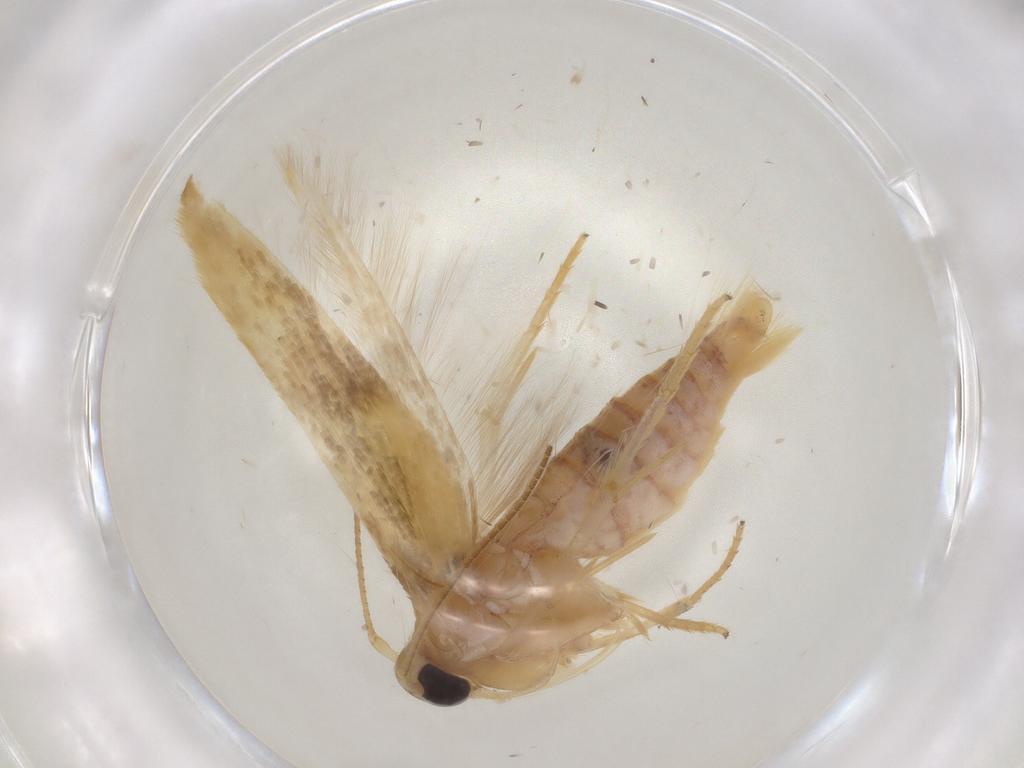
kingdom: Animalia
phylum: Arthropoda
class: Insecta
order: Lepidoptera
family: Stathmopodidae
